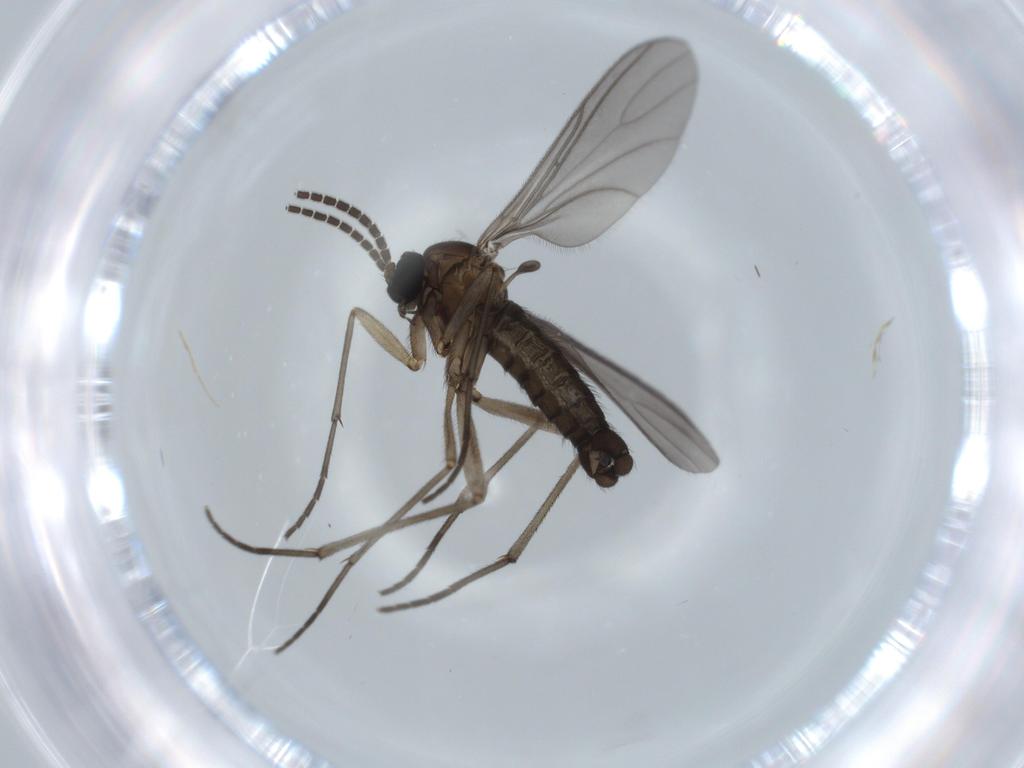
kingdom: Animalia
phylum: Arthropoda
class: Insecta
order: Diptera
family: Sciaridae
